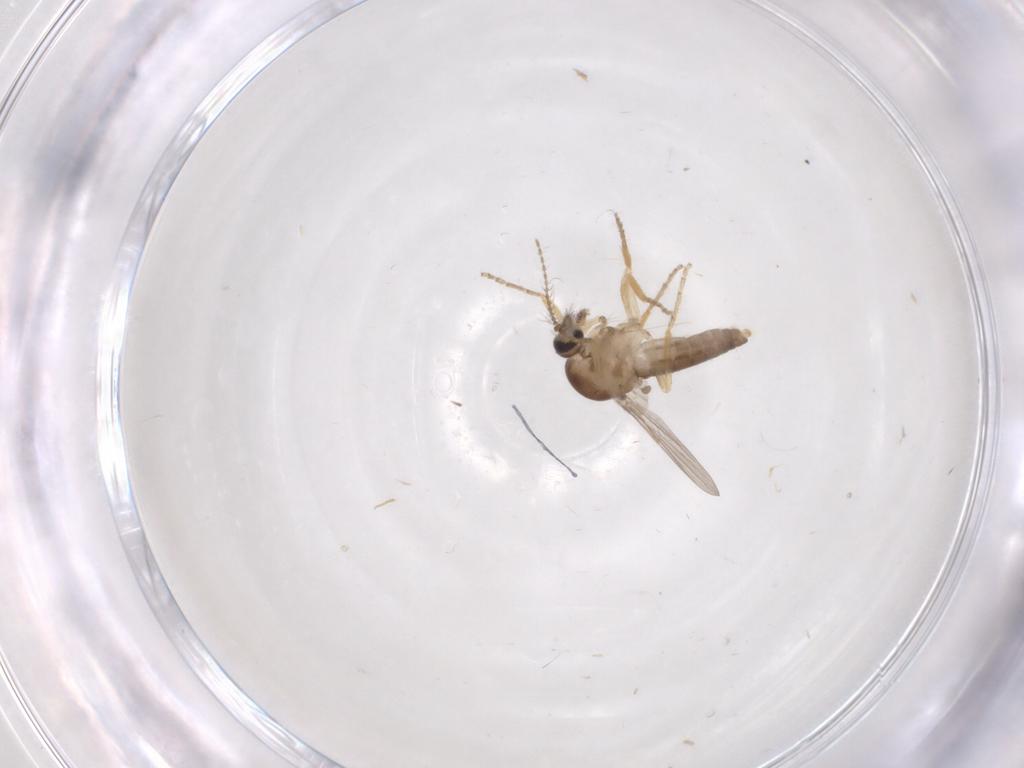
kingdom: Animalia
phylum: Arthropoda
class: Insecta
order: Diptera
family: Ceratopogonidae
